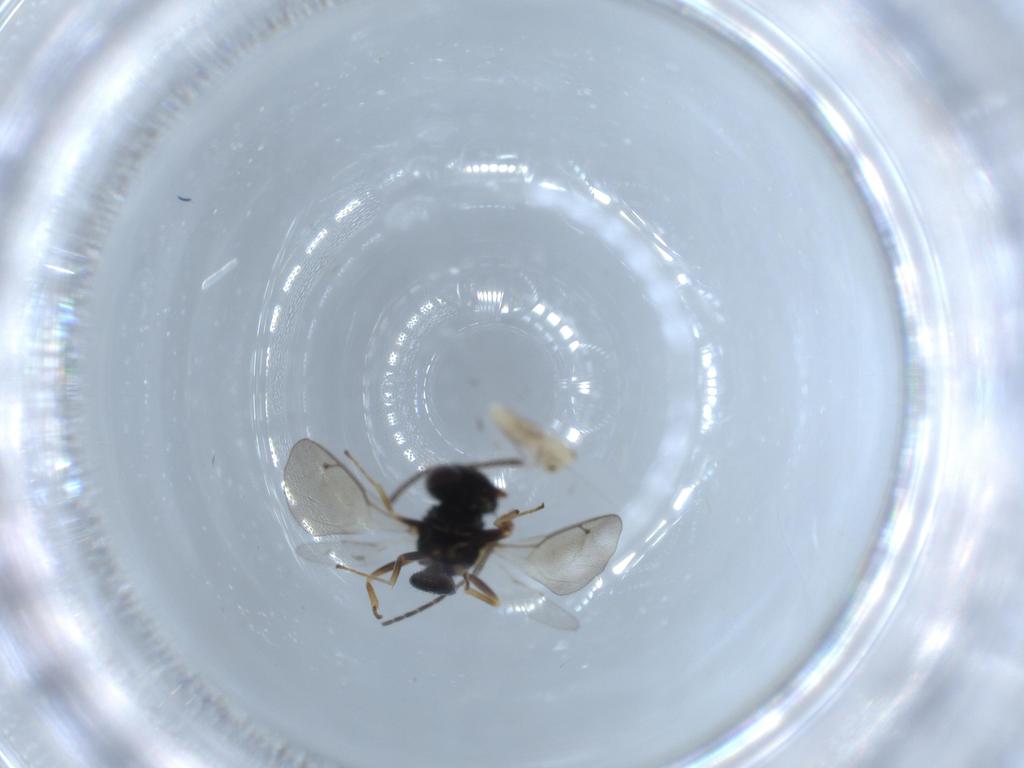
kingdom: Animalia
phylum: Arthropoda
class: Insecta
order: Hymenoptera
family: Pteromalidae
